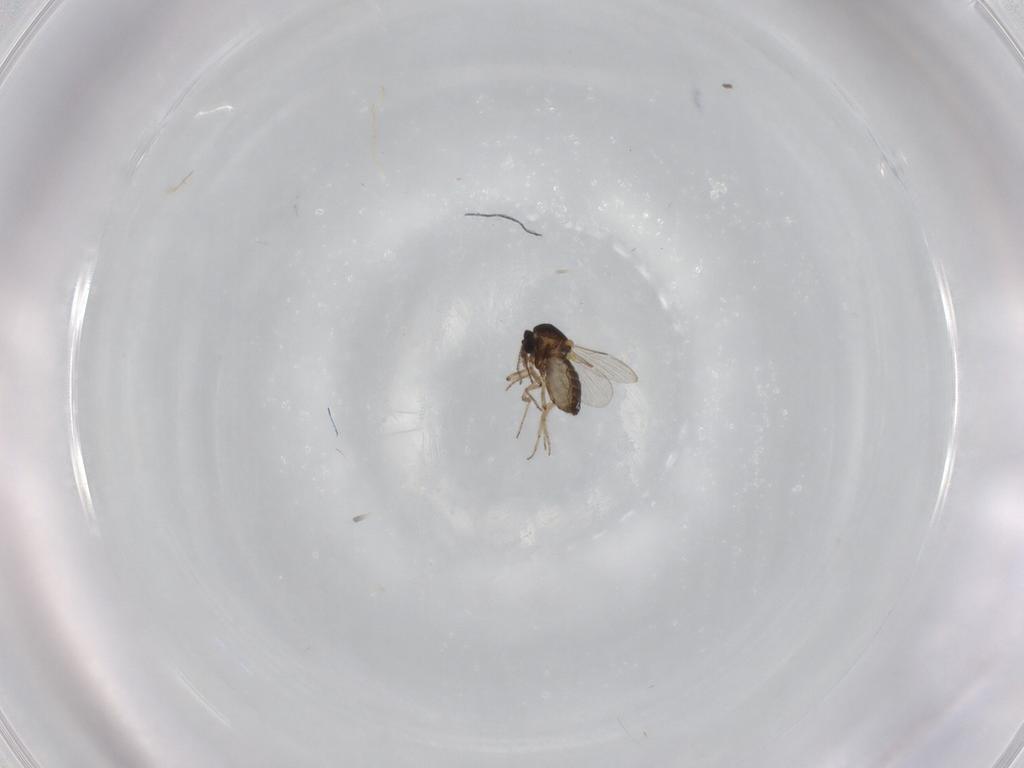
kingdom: Animalia
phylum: Arthropoda
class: Insecta
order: Diptera
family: Ceratopogonidae
